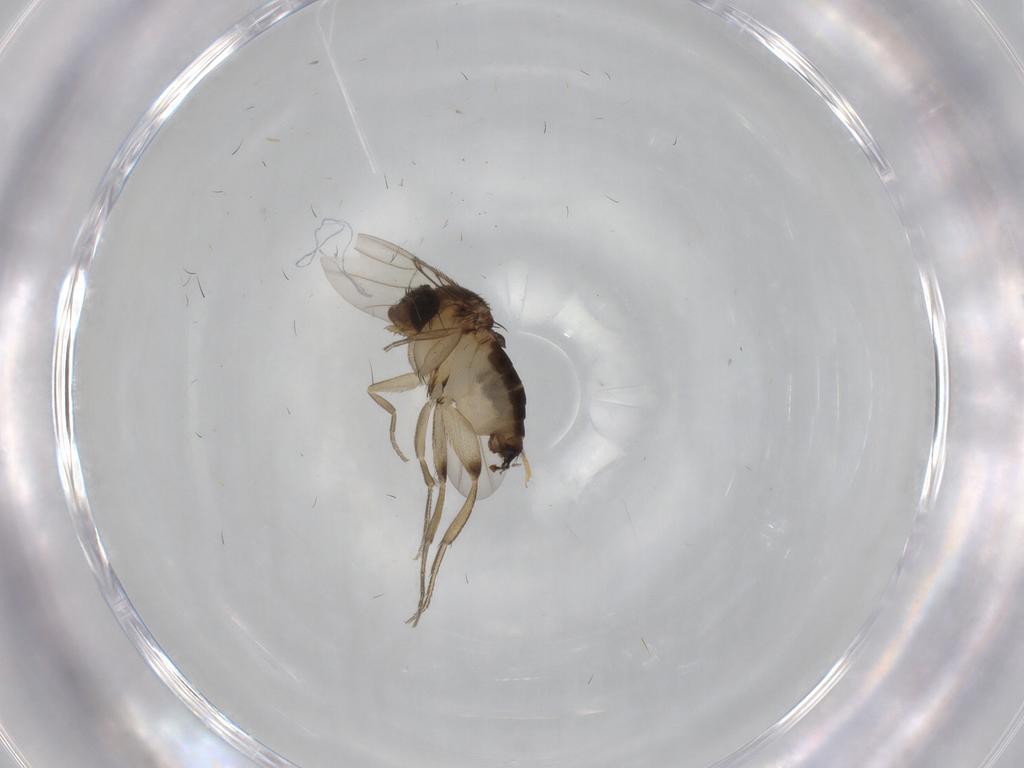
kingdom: Animalia
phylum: Arthropoda
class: Insecta
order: Diptera
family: Phoridae
